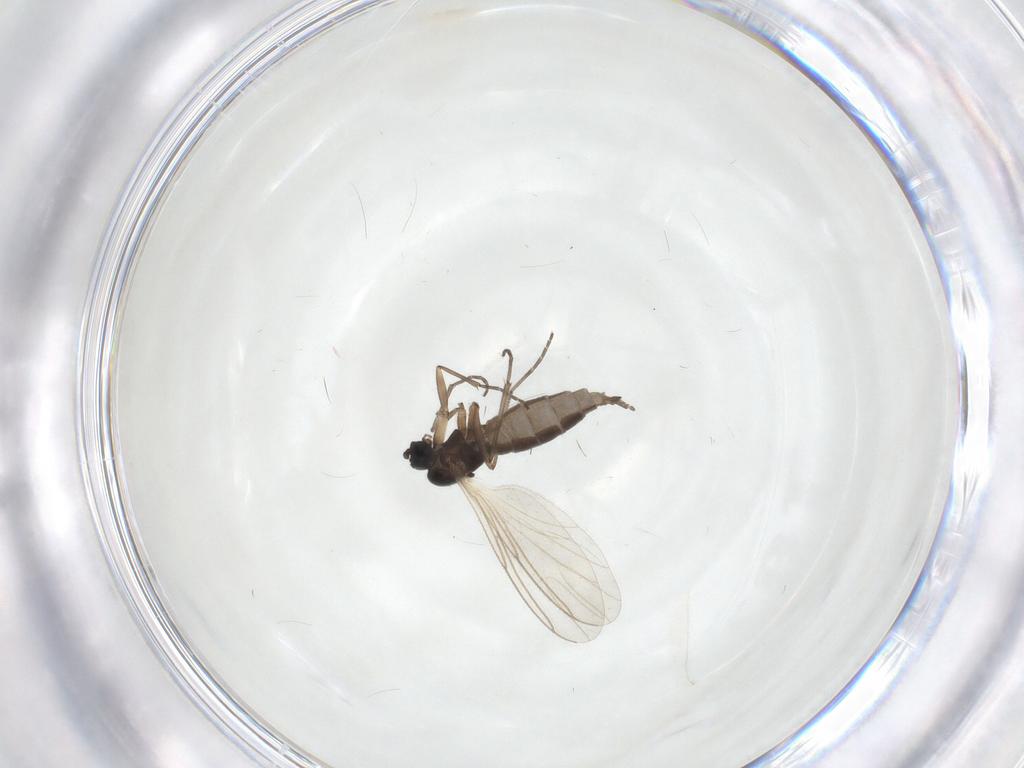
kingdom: Animalia
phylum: Arthropoda
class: Insecta
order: Diptera
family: Sciaridae
